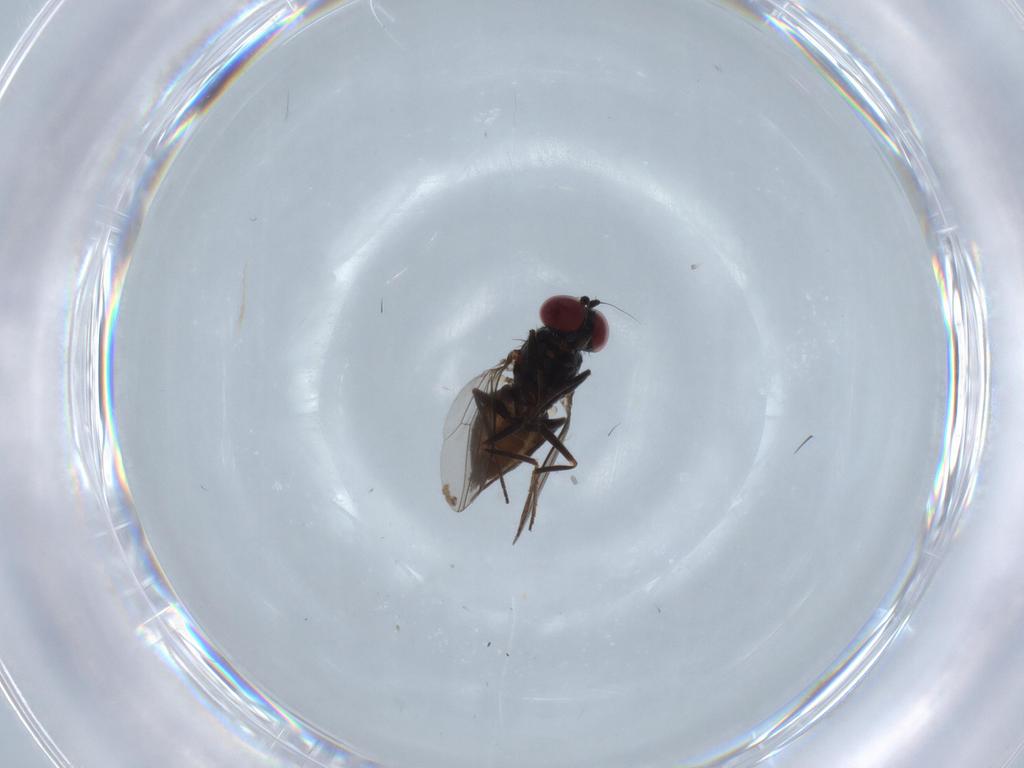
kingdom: Animalia
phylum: Arthropoda
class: Insecta
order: Diptera
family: Dolichopodidae
